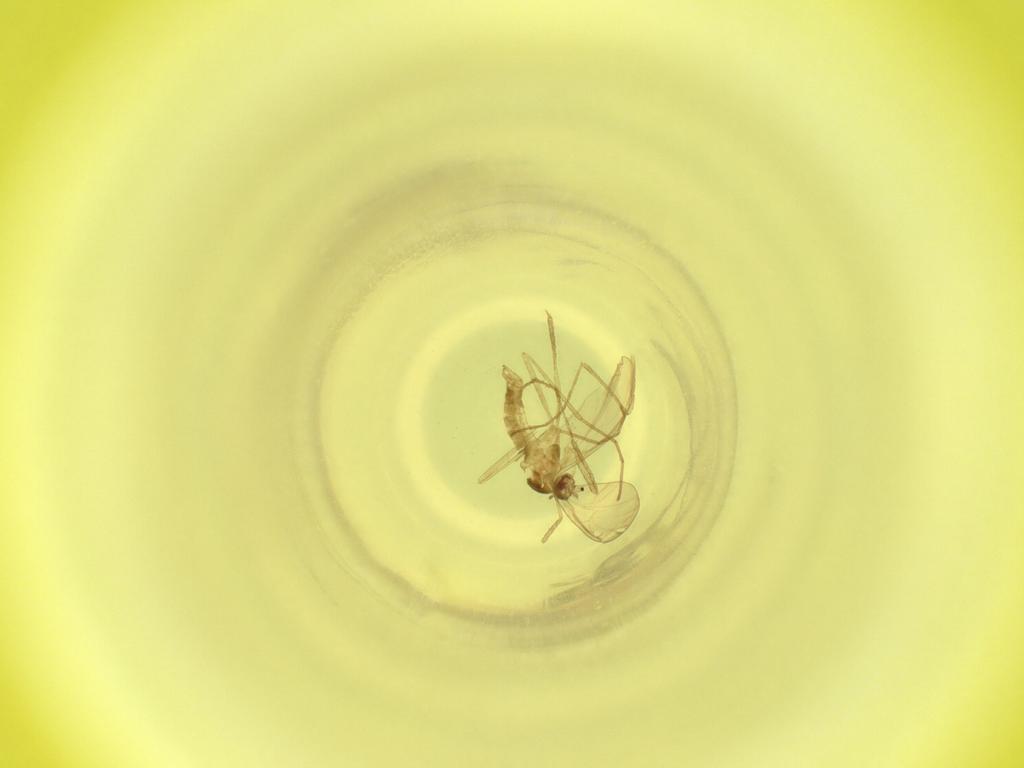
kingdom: Animalia
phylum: Arthropoda
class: Insecta
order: Diptera
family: Cecidomyiidae
